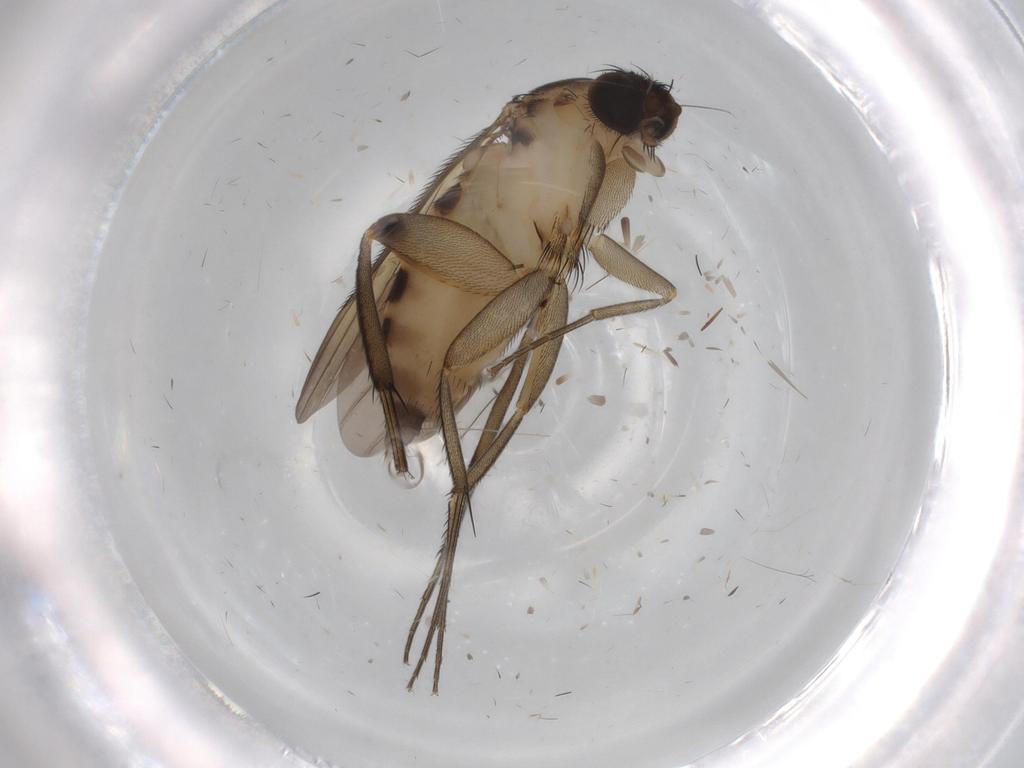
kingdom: Animalia
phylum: Arthropoda
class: Insecta
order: Diptera
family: Phoridae
